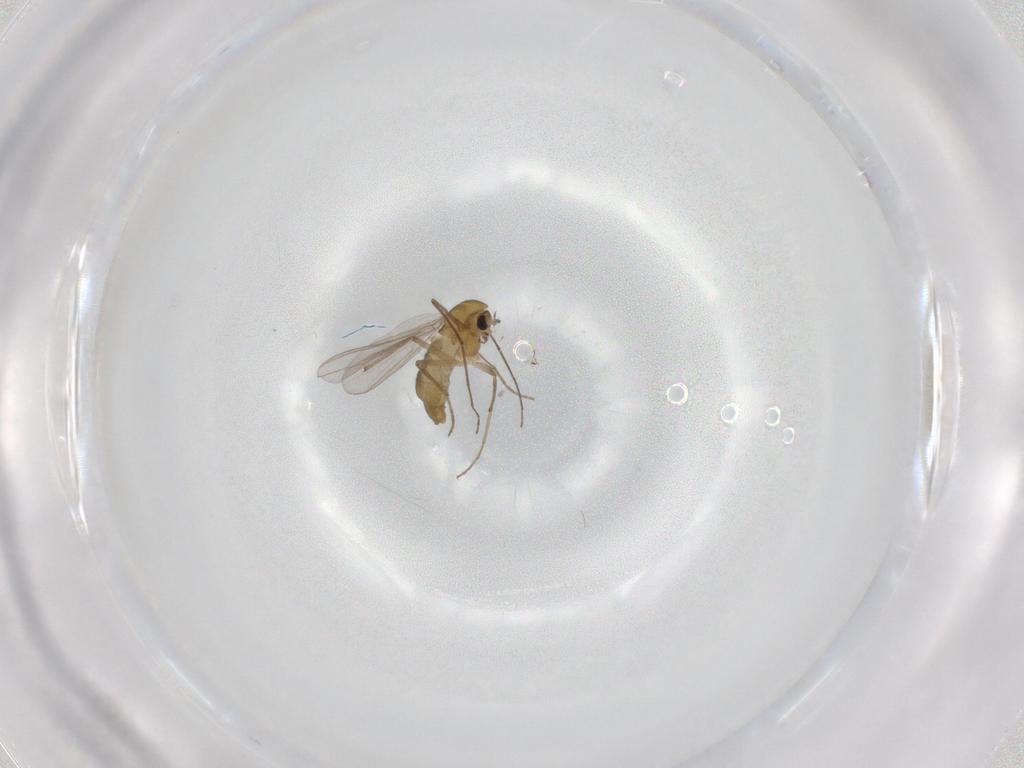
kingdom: Animalia
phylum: Arthropoda
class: Insecta
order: Diptera
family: Chironomidae
